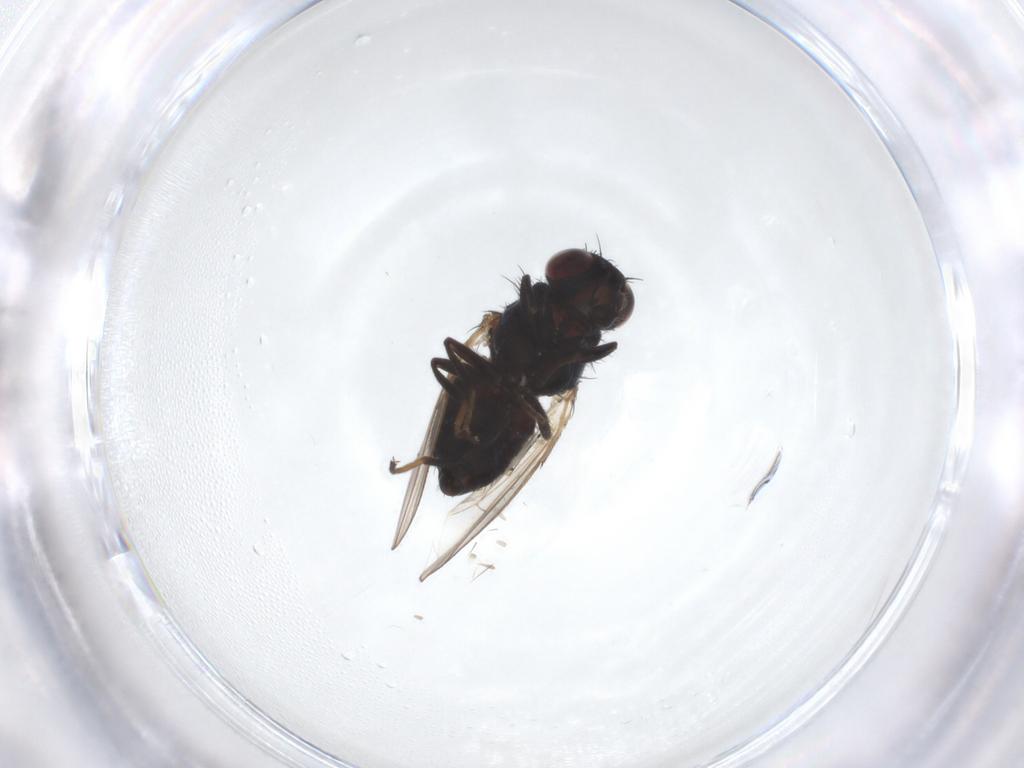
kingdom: Animalia
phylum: Arthropoda
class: Insecta
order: Diptera
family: Carnidae
